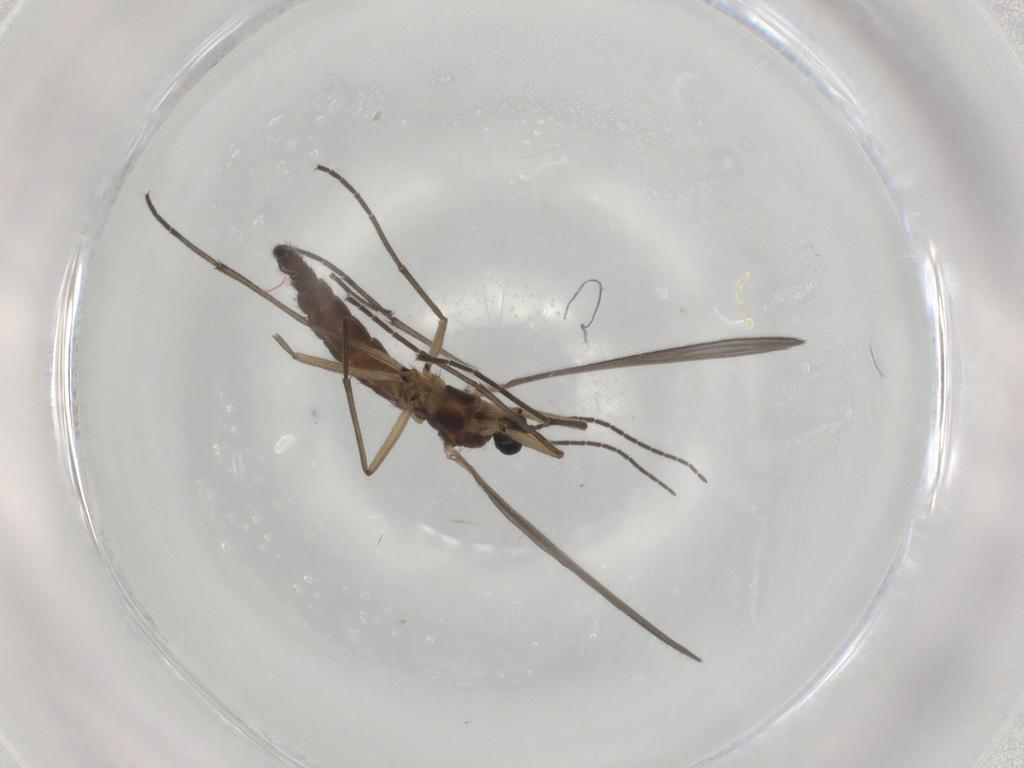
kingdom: Animalia
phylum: Arthropoda
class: Insecta
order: Diptera
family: Sciaridae
